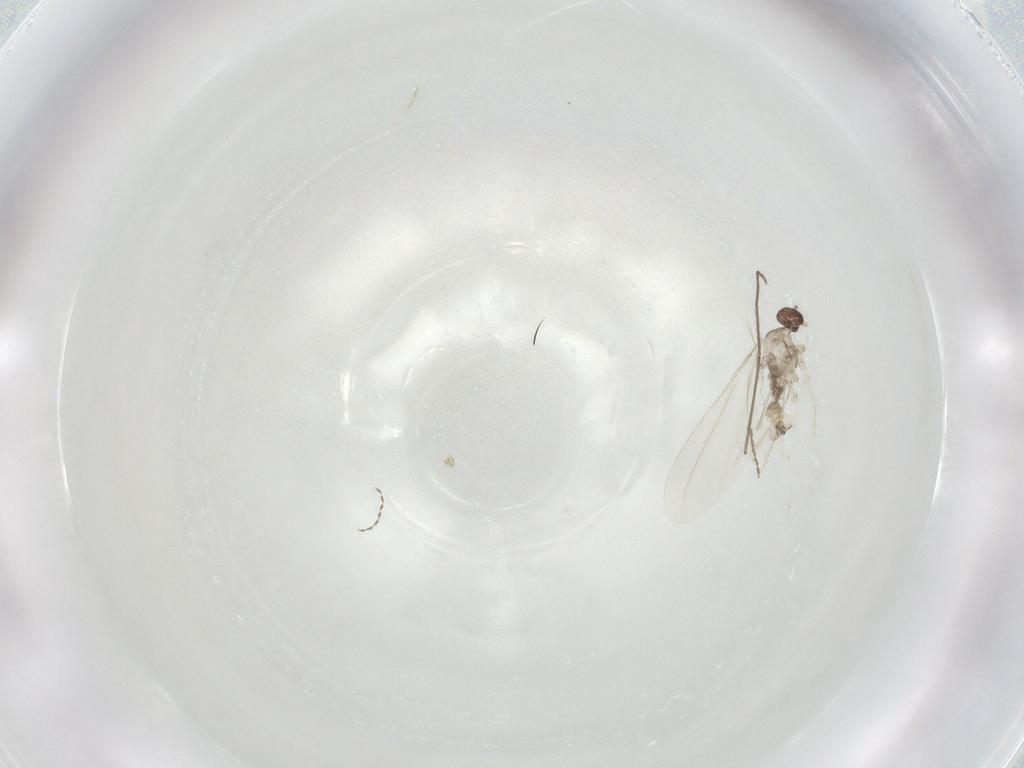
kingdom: Animalia
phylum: Arthropoda
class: Insecta
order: Diptera
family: Cecidomyiidae
